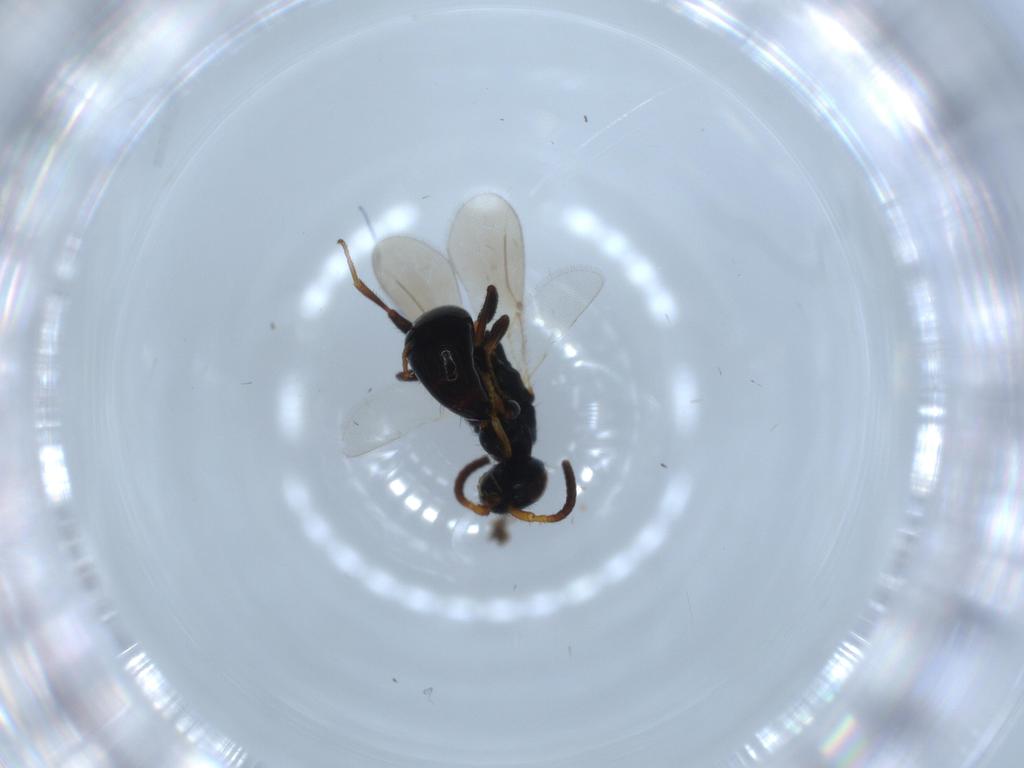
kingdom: Animalia
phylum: Arthropoda
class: Insecta
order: Hymenoptera
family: Bethylidae
